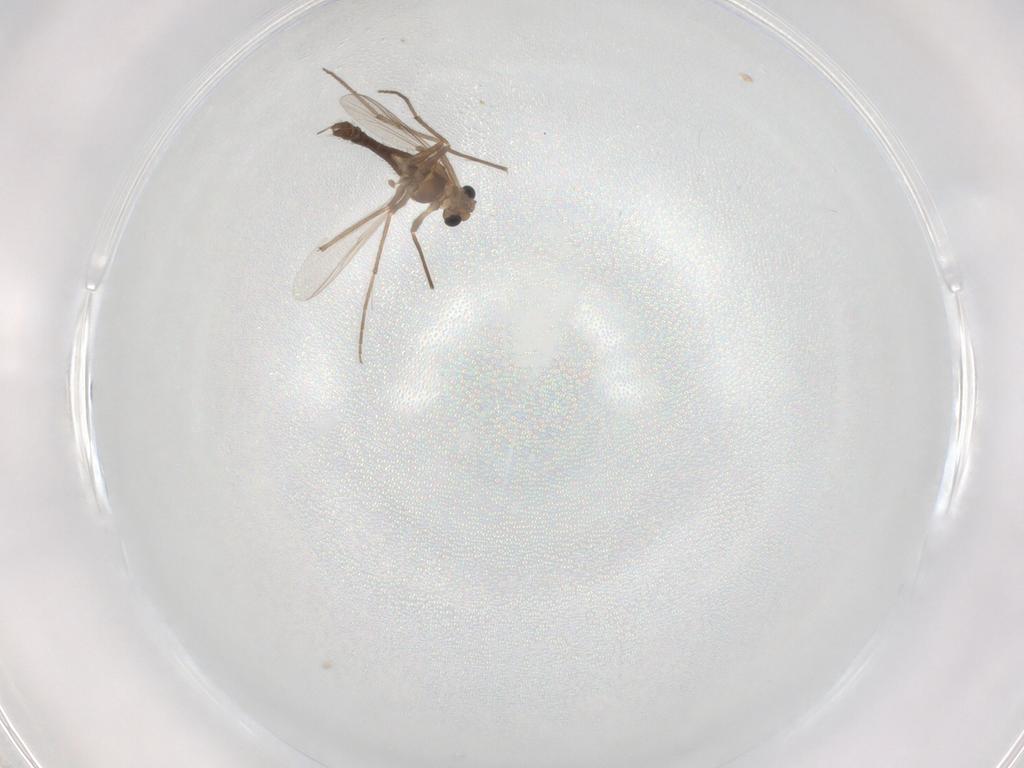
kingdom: Animalia
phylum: Arthropoda
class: Insecta
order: Diptera
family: Chironomidae
